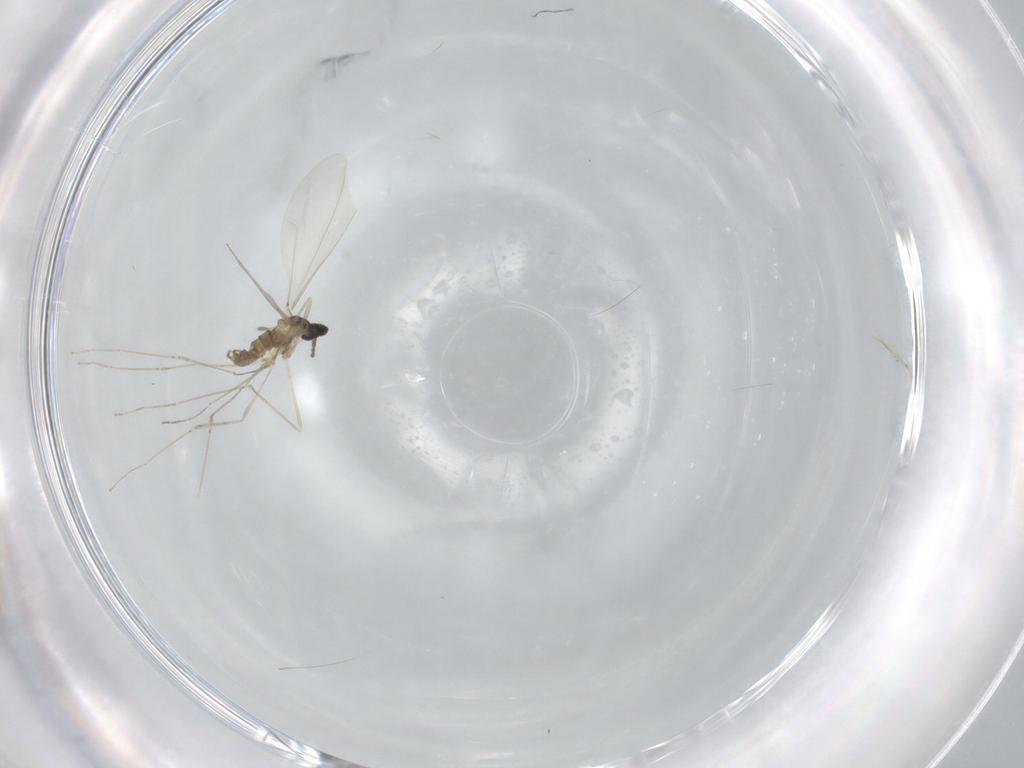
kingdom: Animalia
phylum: Arthropoda
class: Insecta
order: Diptera
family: Cecidomyiidae
